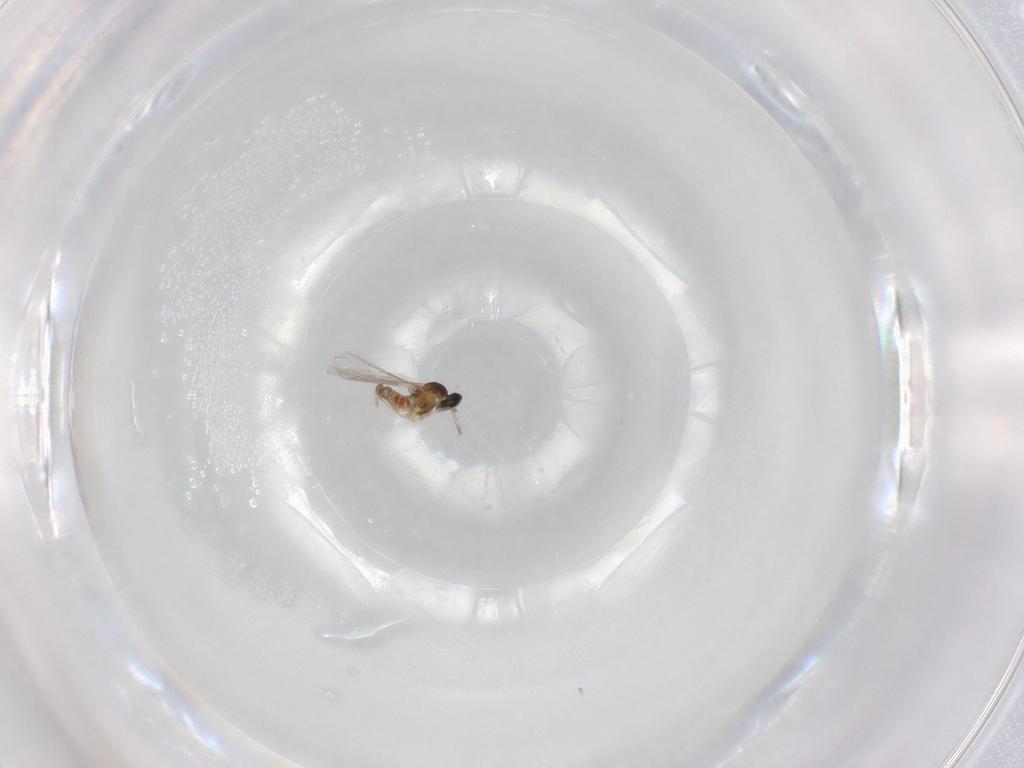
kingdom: Animalia
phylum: Arthropoda
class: Insecta
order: Diptera
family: Cecidomyiidae
